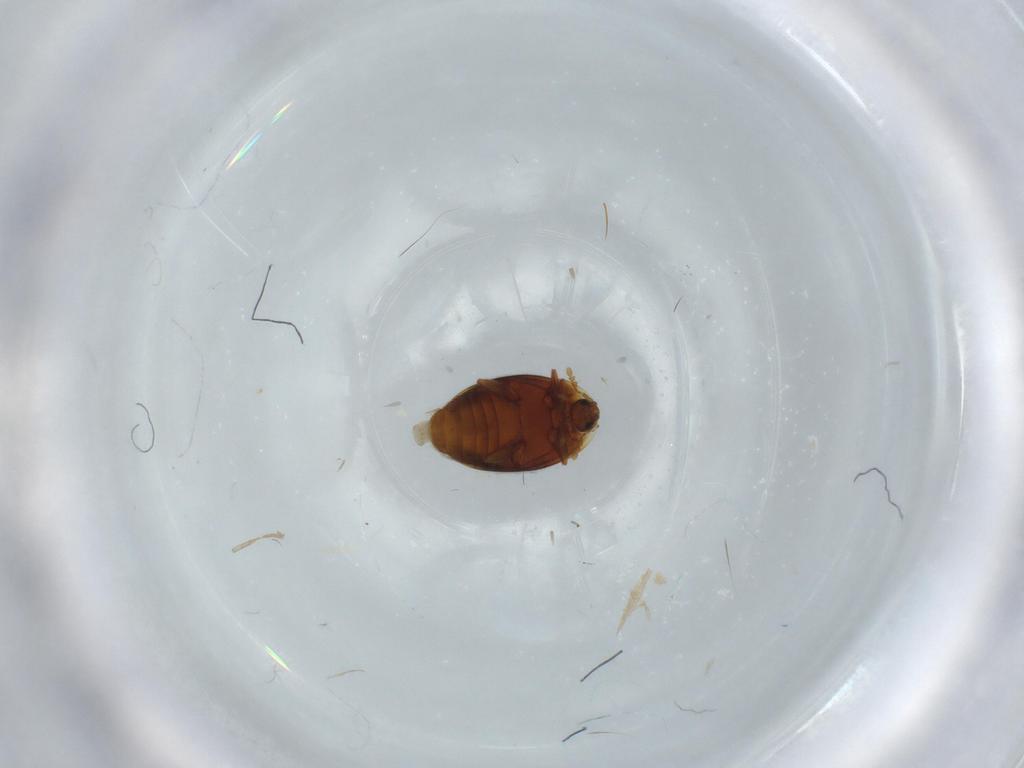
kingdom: Animalia
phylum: Arthropoda
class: Insecta
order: Coleoptera
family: Corylophidae
